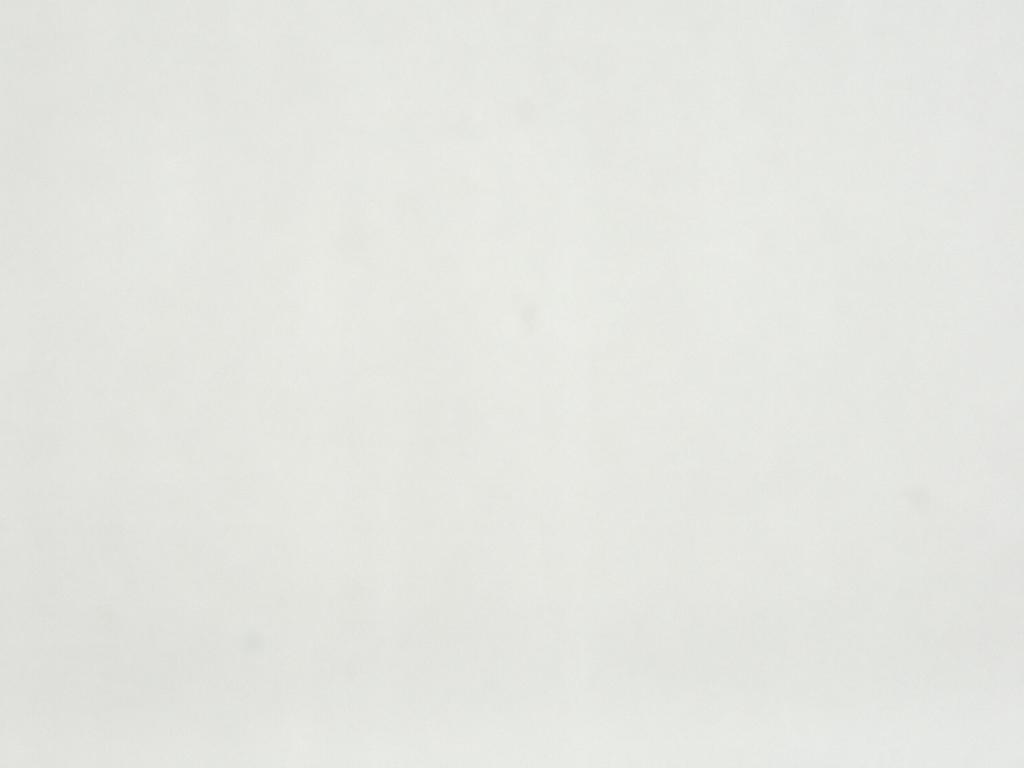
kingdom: Animalia
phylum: Arthropoda
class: Insecta
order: Diptera
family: Sciaridae
